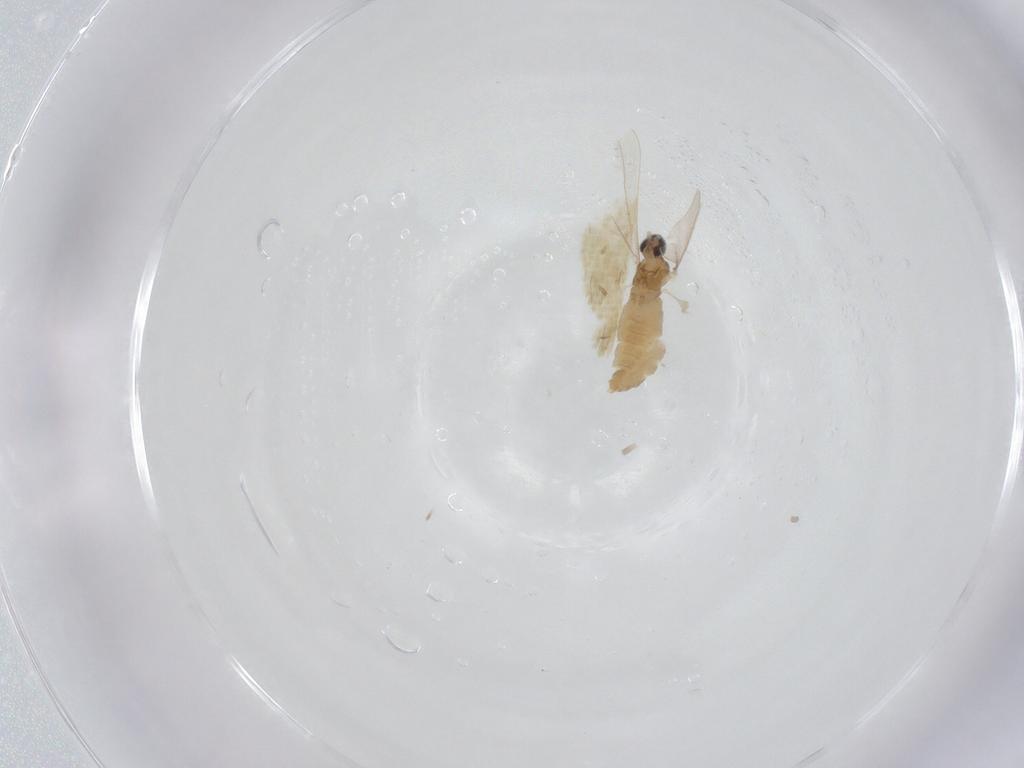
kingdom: Animalia
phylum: Arthropoda
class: Insecta
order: Diptera
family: Cecidomyiidae
